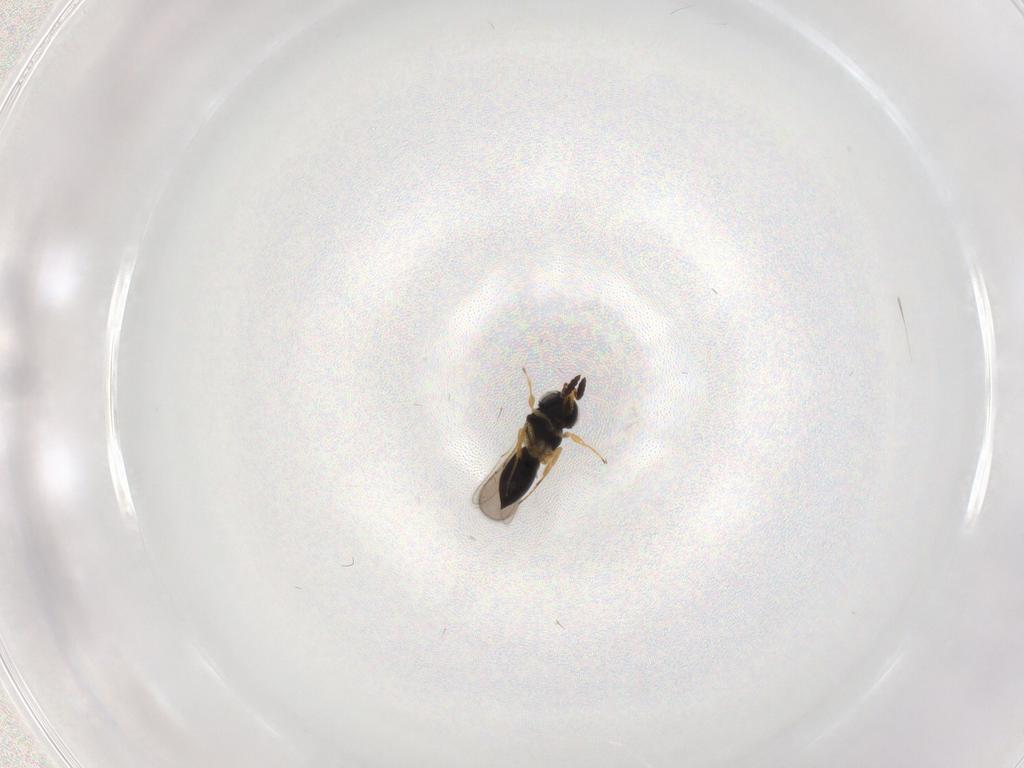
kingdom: Animalia
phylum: Arthropoda
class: Insecta
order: Hymenoptera
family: Scelionidae
